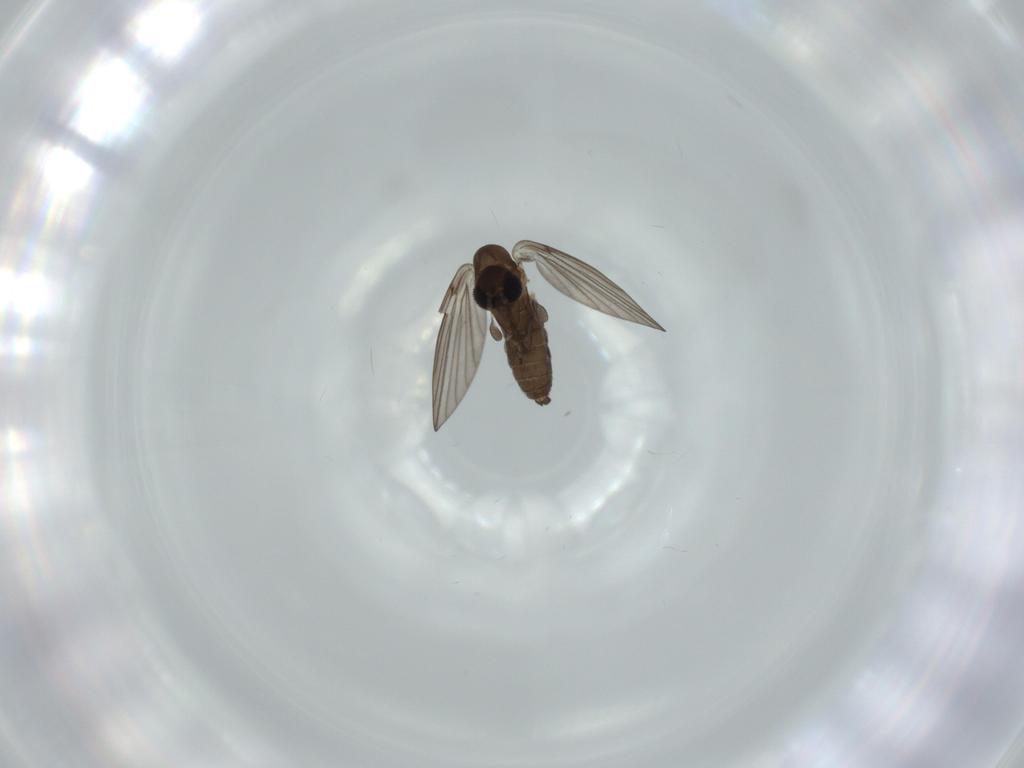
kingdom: Animalia
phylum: Arthropoda
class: Insecta
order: Diptera
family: Psychodidae
